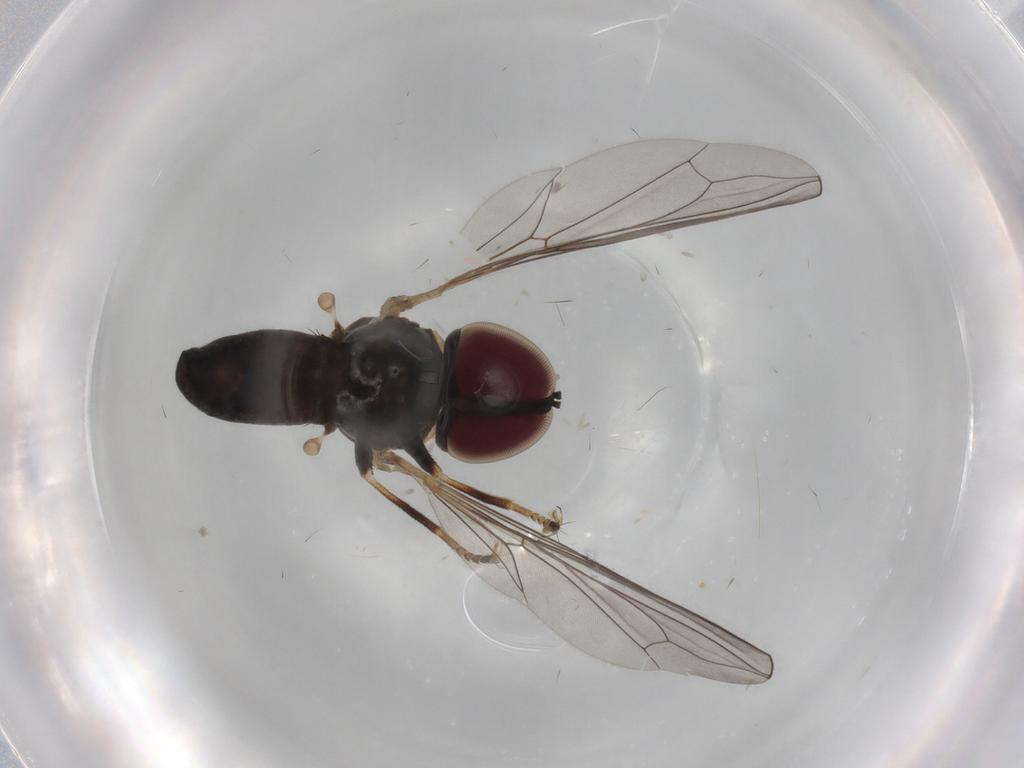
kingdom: Animalia
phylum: Arthropoda
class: Insecta
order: Diptera
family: Pipunculidae
